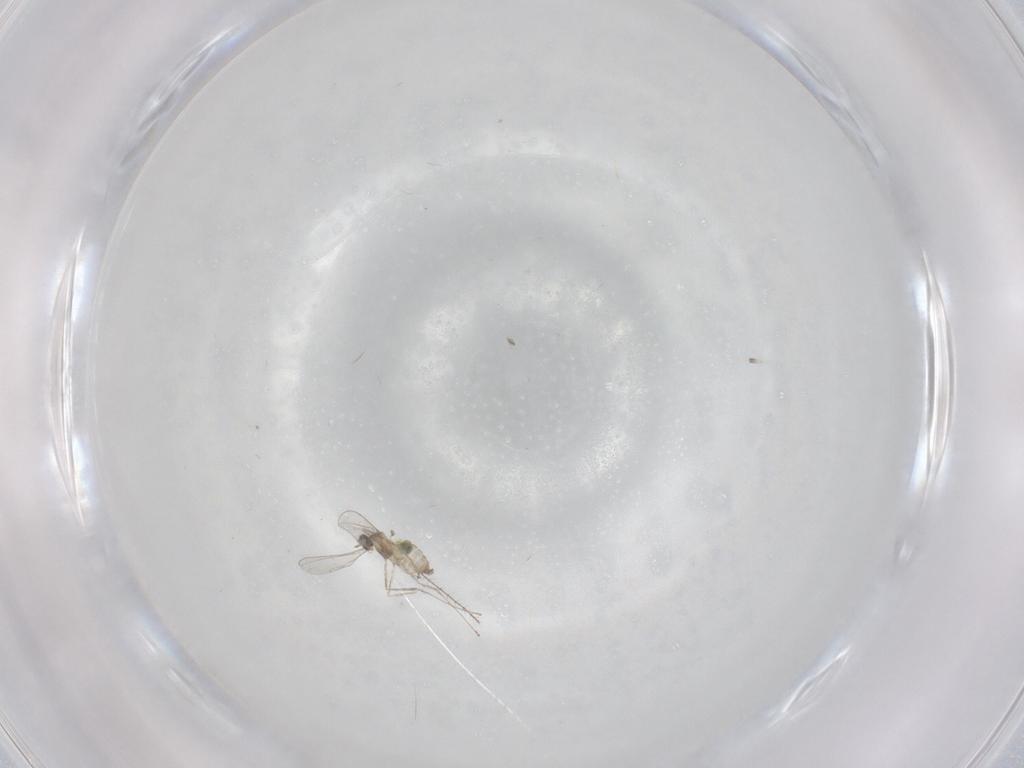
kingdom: Animalia
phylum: Arthropoda
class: Insecta
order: Diptera
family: Cecidomyiidae
